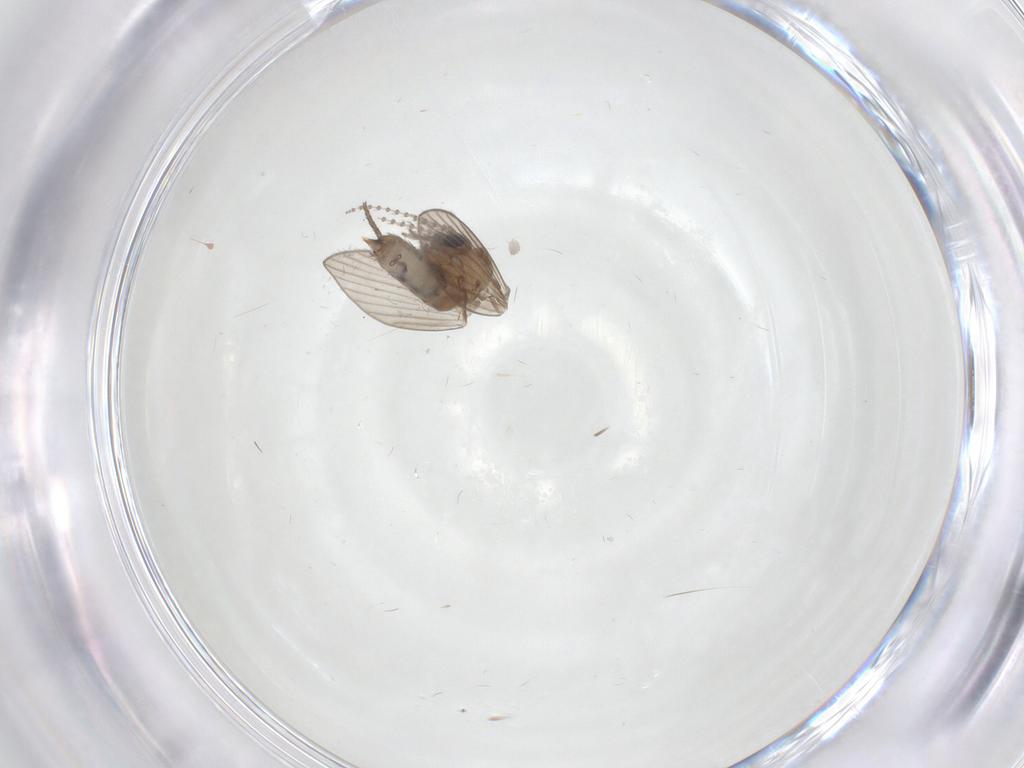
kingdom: Animalia
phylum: Arthropoda
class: Insecta
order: Diptera
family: Psychodidae
